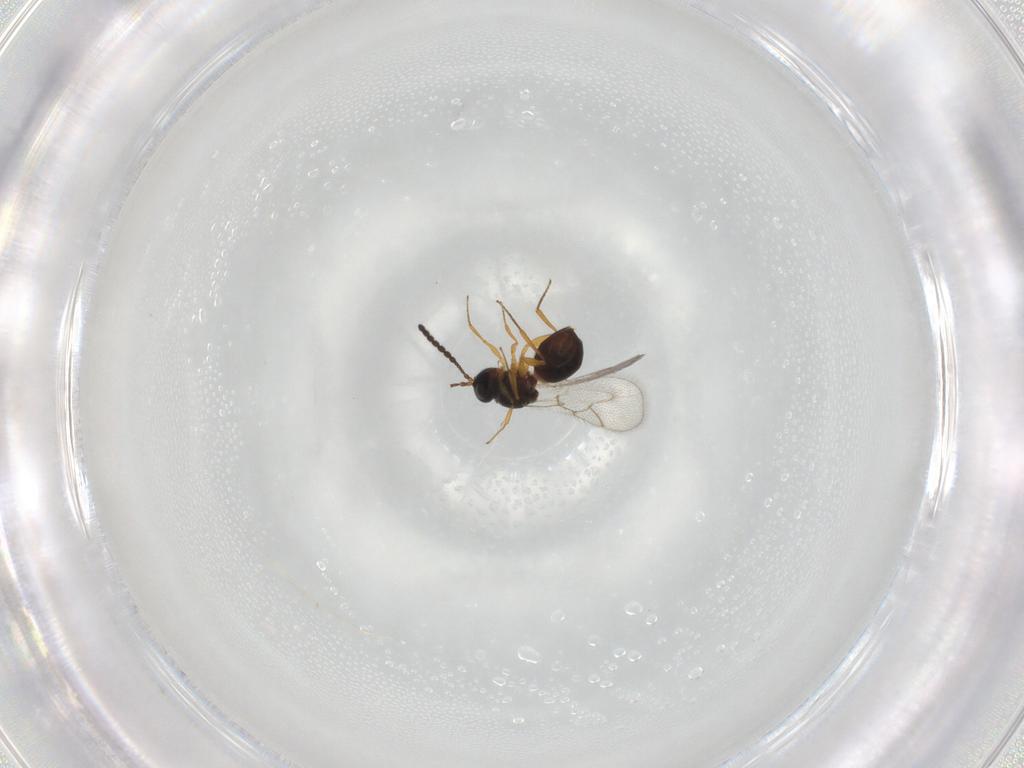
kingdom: Animalia
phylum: Arthropoda
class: Insecta
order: Hymenoptera
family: Figitidae
